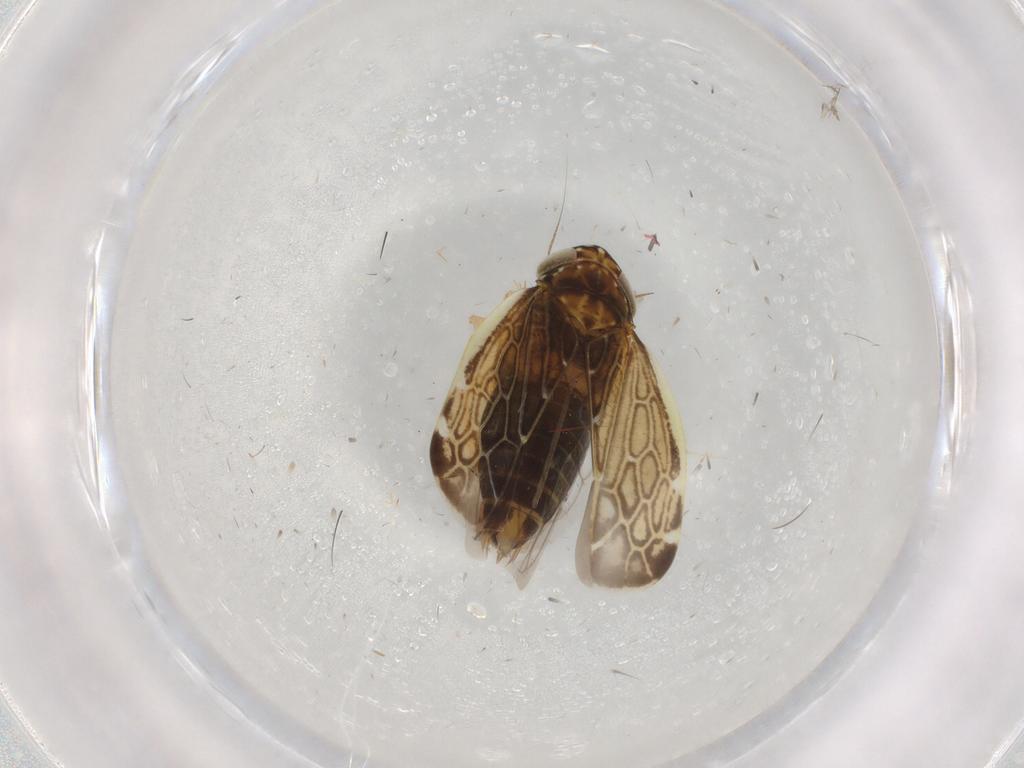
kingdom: Animalia
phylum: Arthropoda
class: Insecta
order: Hemiptera
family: Cicadellidae
